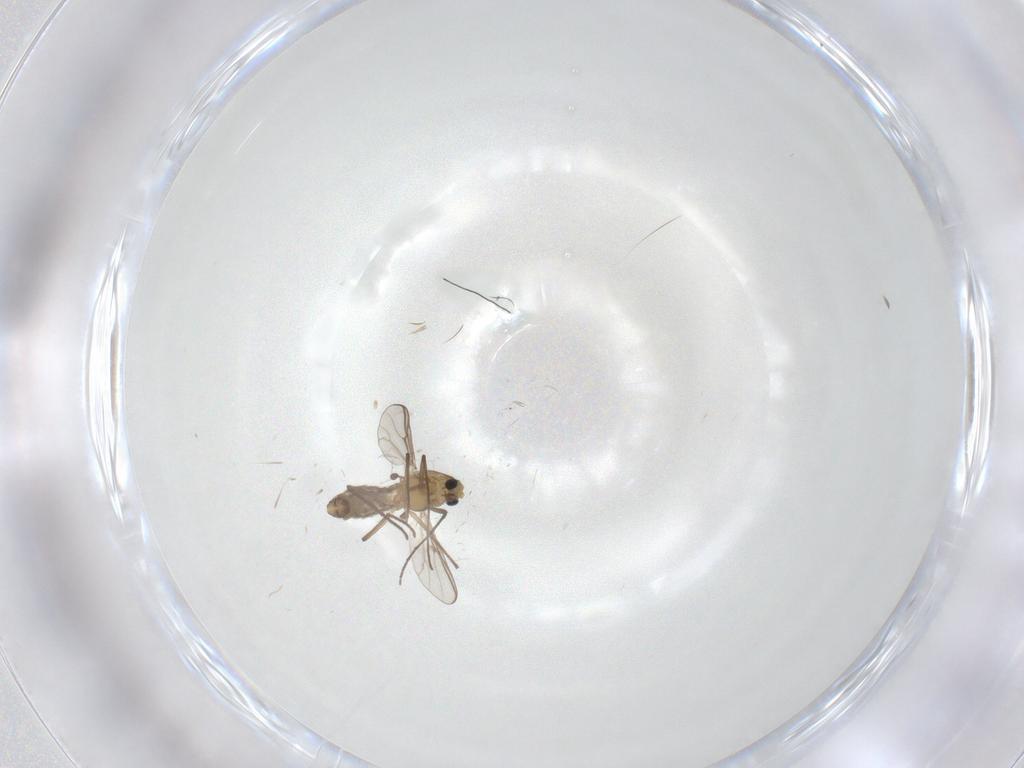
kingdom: Animalia
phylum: Arthropoda
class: Insecta
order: Diptera
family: Chironomidae
